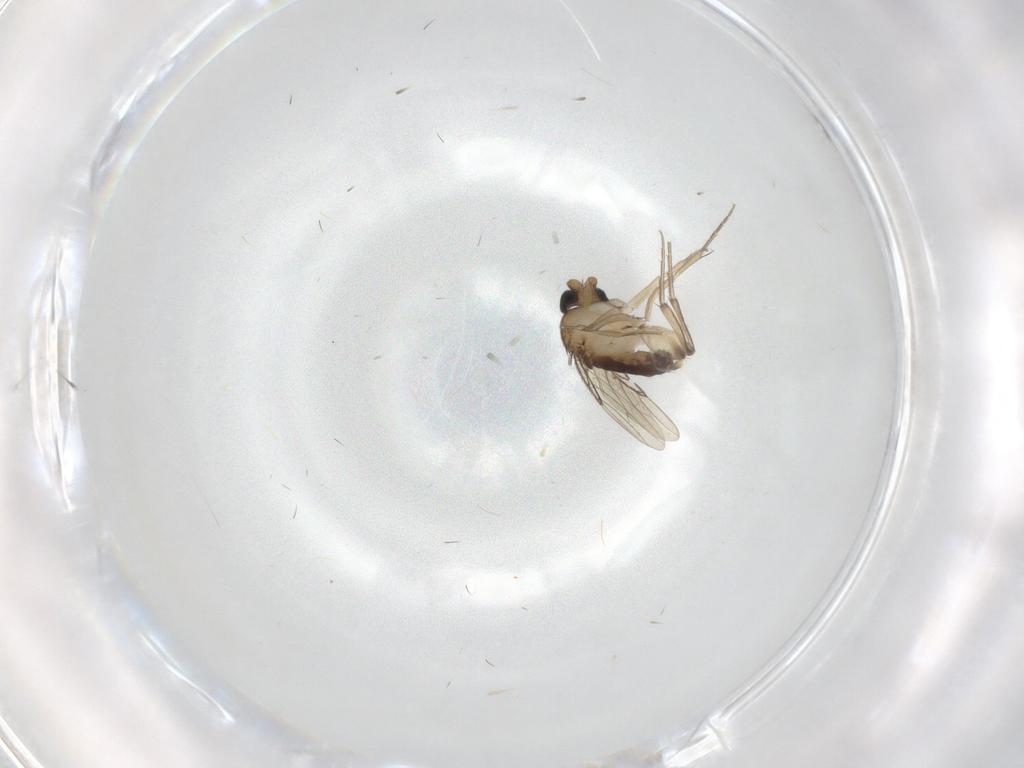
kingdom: Animalia
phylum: Arthropoda
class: Insecta
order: Diptera
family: Phoridae
